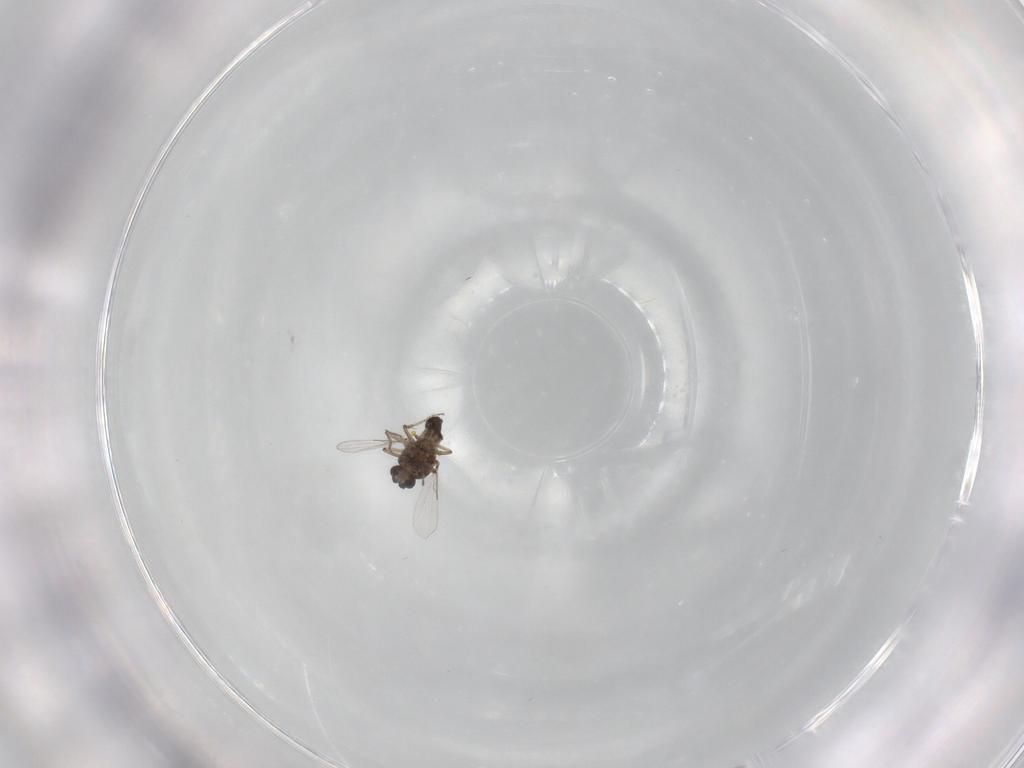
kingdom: Animalia
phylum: Arthropoda
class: Insecta
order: Diptera
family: Ceratopogonidae
